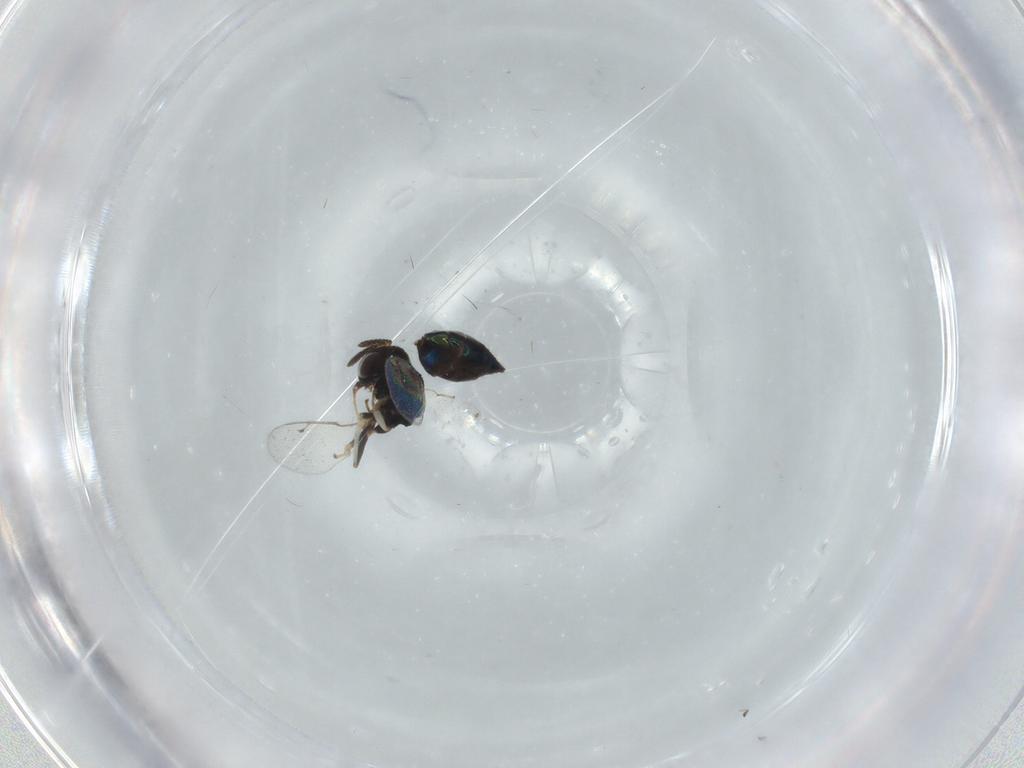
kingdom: Animalia
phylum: Arthropoda
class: Insecta
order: Hymenoptera
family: Pteromalidae
